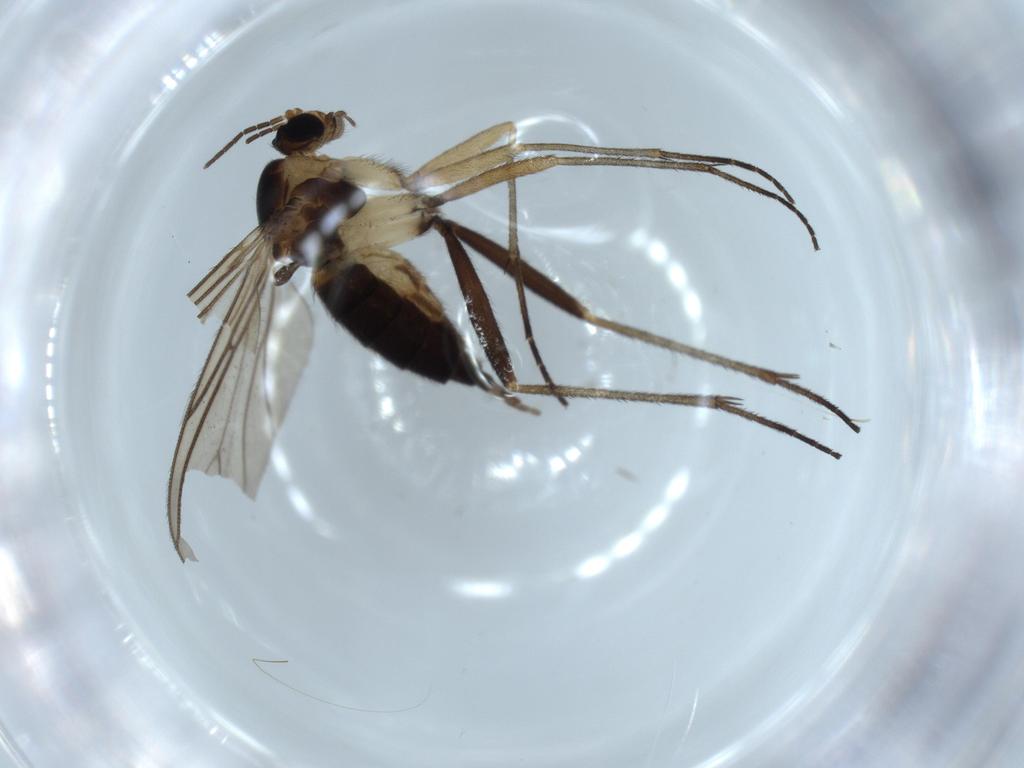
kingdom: Animalia
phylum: Arthropoda
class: Insecta
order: Diptera
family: Sciaridae
